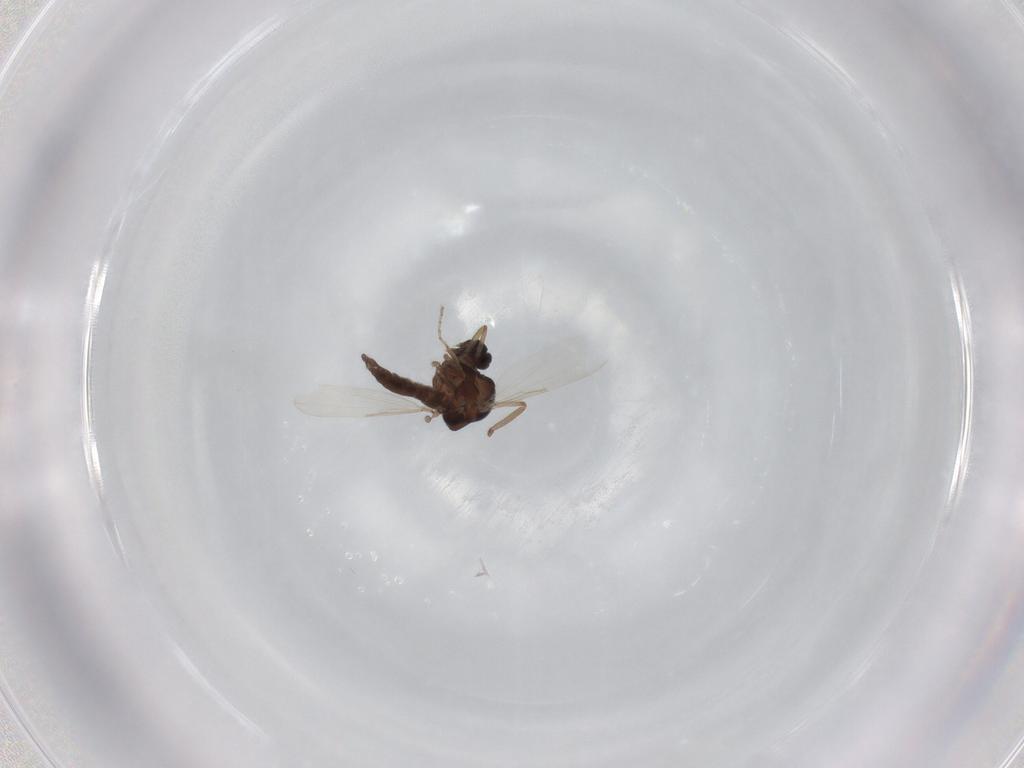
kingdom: Animalia
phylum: Arthropoda
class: Insecta
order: Diptera
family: Ceratopogonidae
